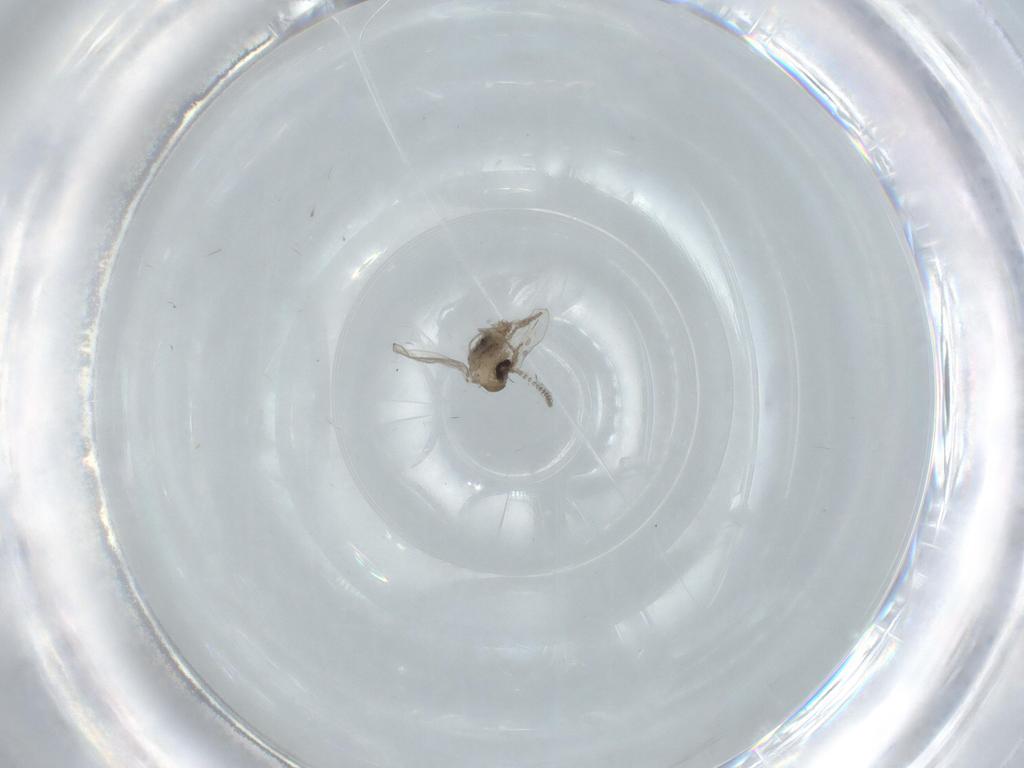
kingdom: Animalia
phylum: Arthropoda
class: Insecta
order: Diptera
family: Psychodidae
